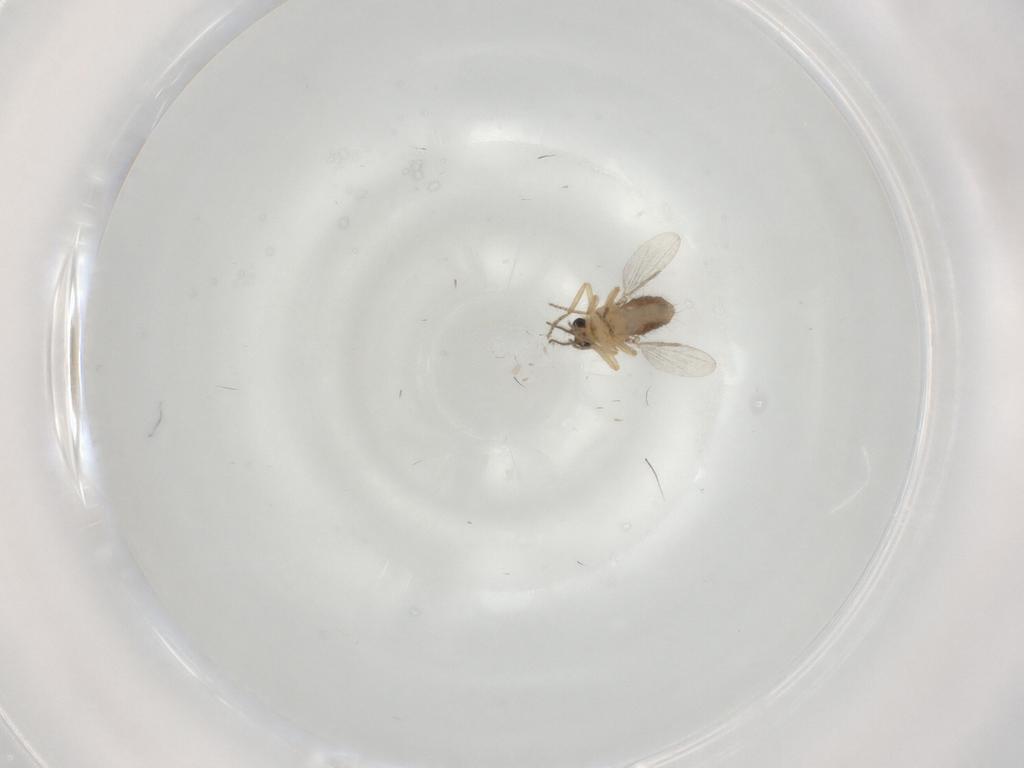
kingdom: Animalia
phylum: Arthropoda
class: Insecta
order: Diptera
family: Ceratopogonidae
